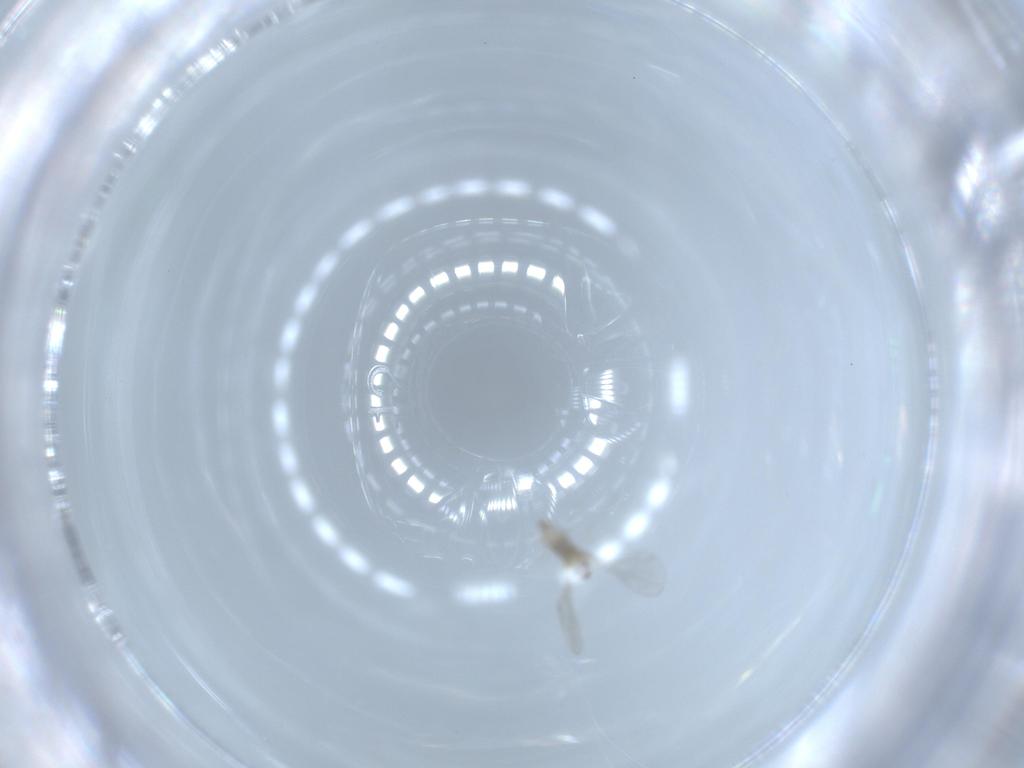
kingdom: Animalia
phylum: Arthropoda
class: Insecta
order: Diptera
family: Cecidomyiidae
